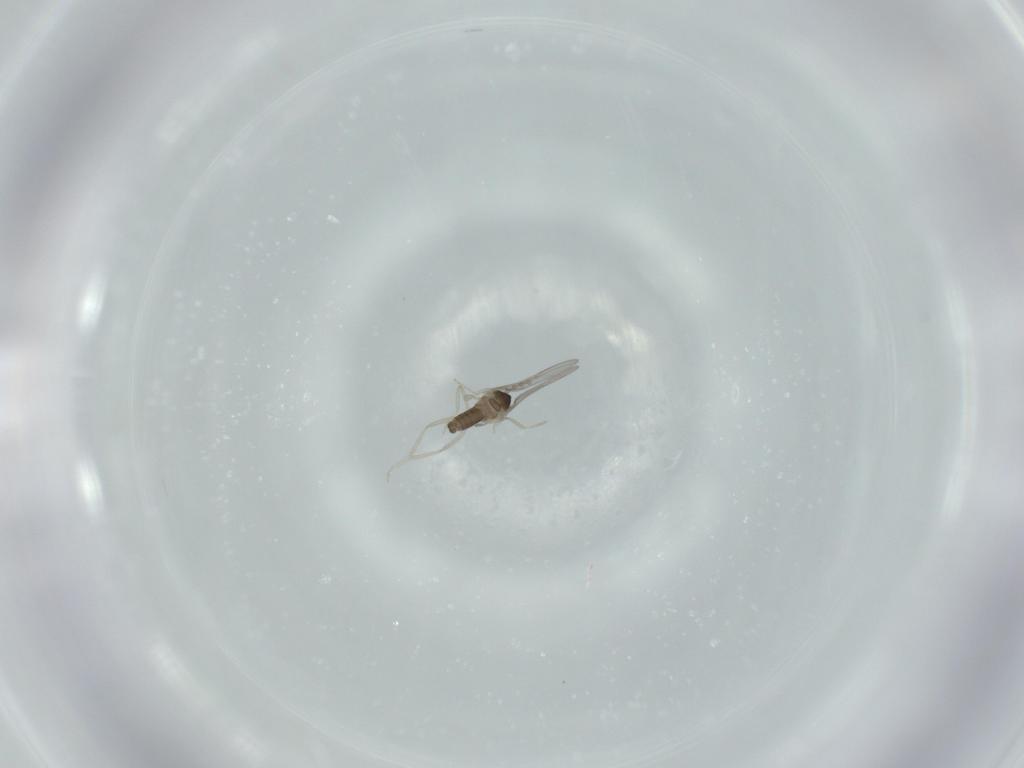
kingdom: Animalia
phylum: Arthropoda
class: Insecta
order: Diptera
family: Cecidomyiidae
